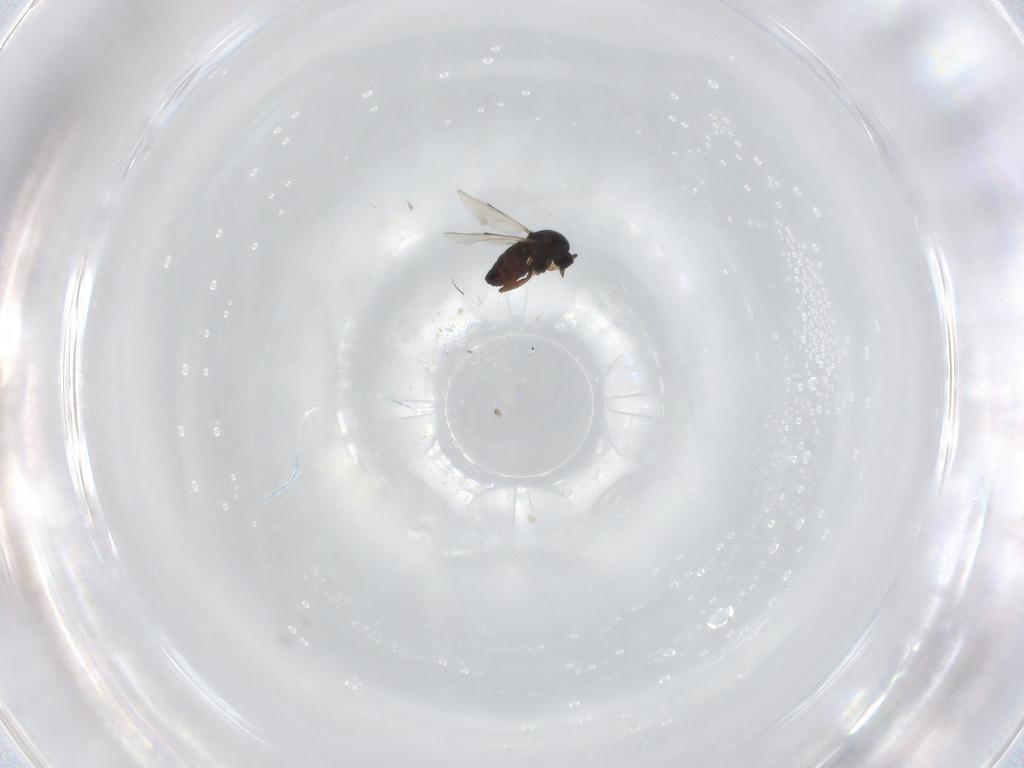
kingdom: Animalia
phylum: Arthropoda
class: Insecta
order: Diptera
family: Ceratopogonidae
